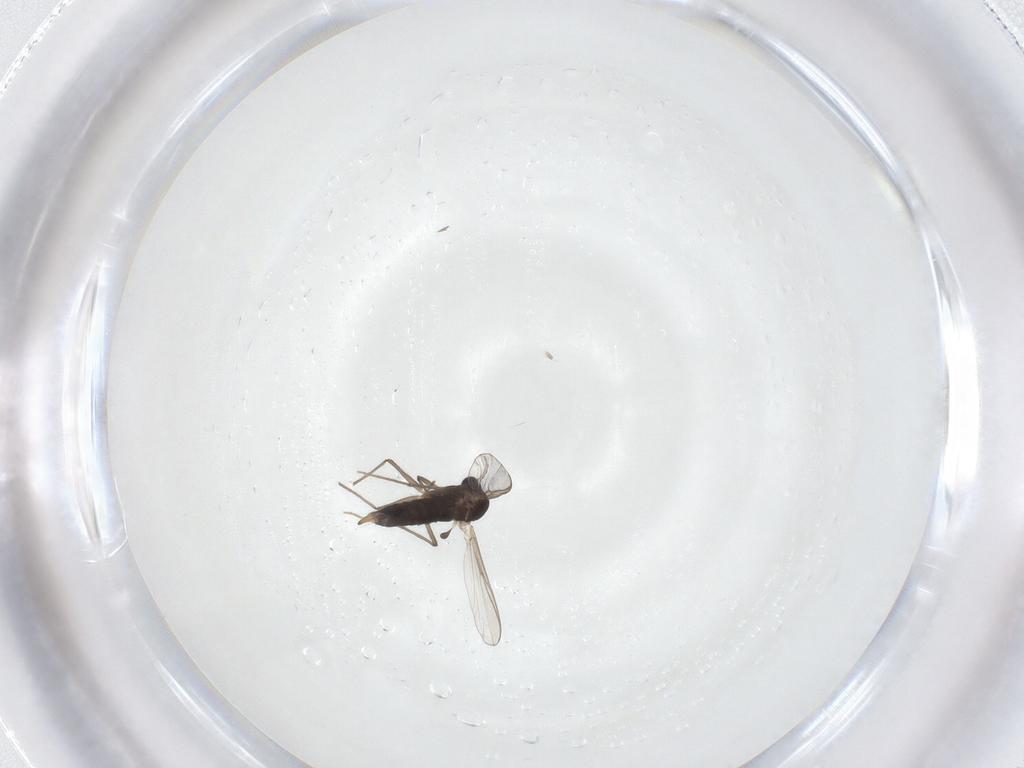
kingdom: Animalia
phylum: Arthropoda
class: Insecta
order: Diptera
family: Chironomidae
